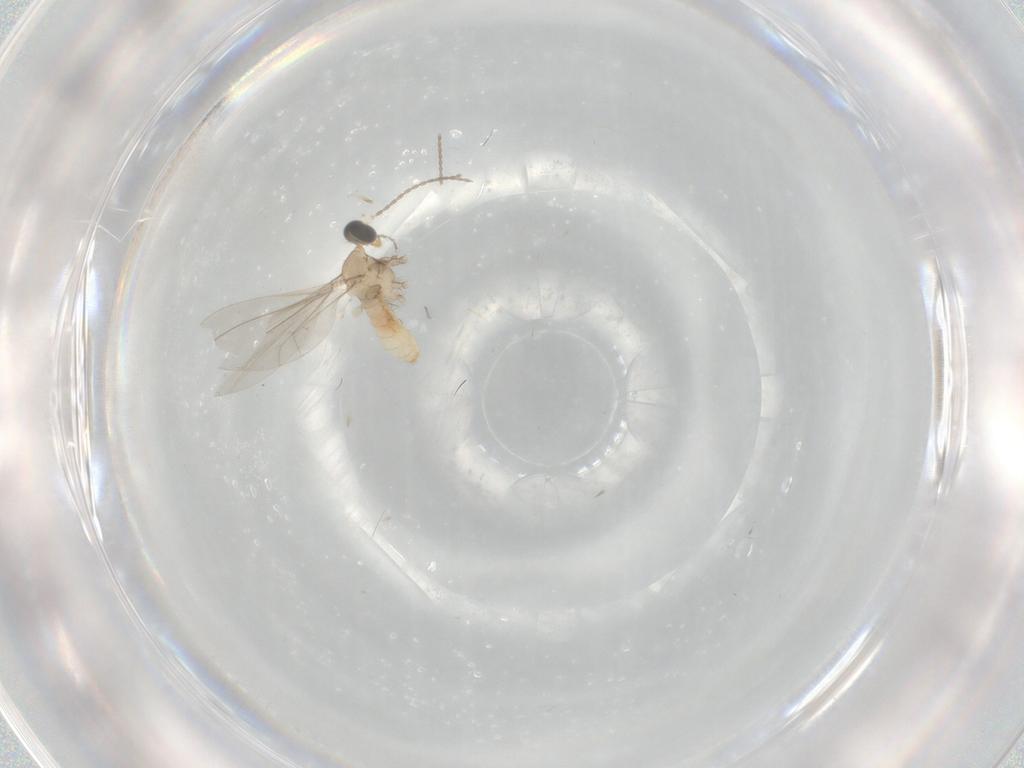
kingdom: Animalia
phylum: Arthropoda
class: Insecta
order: Diptera
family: Cecidomyiidae
